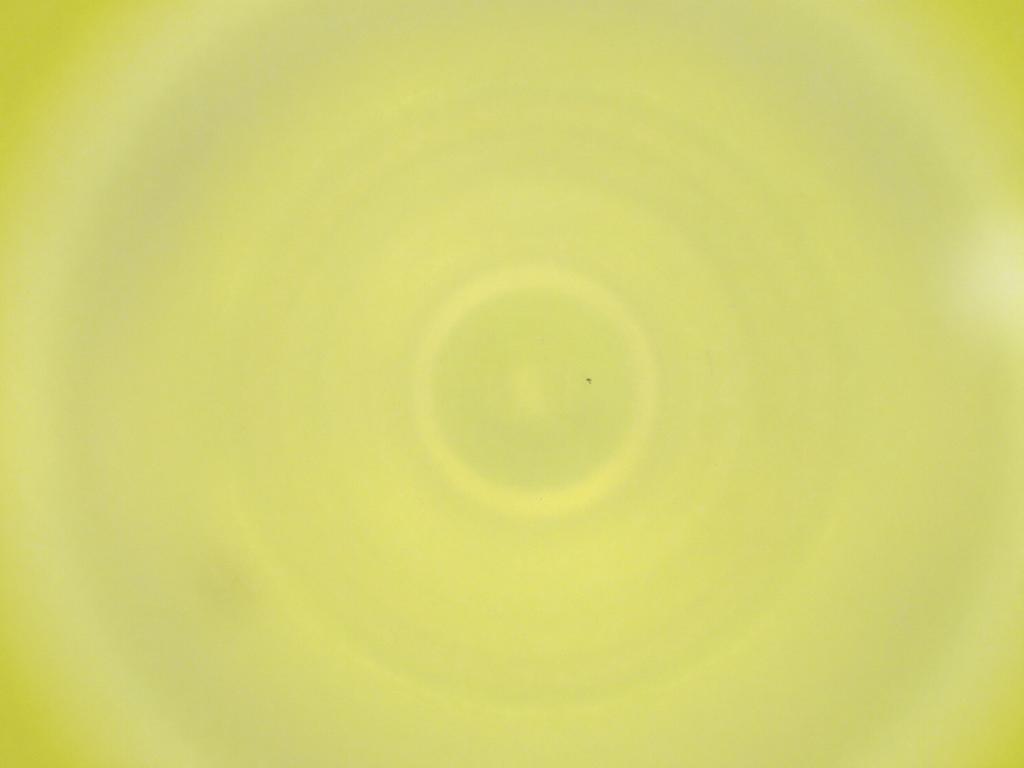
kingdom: Animalia
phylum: Arthropoda
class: Insecta
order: Diptera
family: Cecidomyiidae
